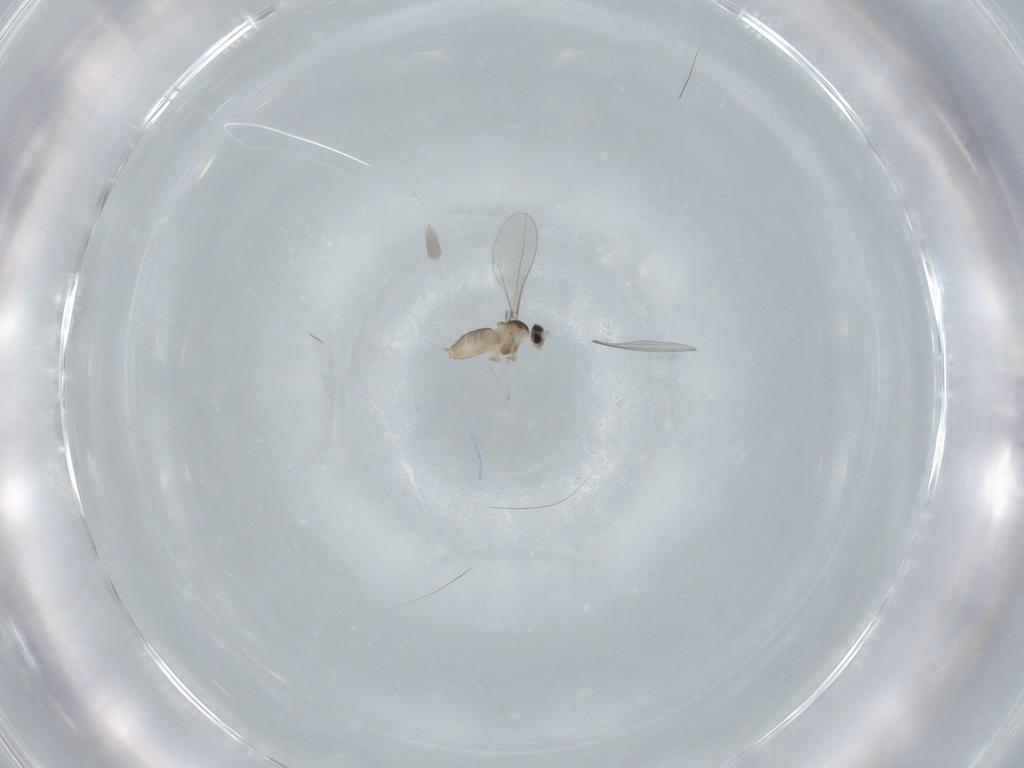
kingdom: Animalia
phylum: Arthropoda
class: Insecta
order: Diptera
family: Cecidomyiidae
